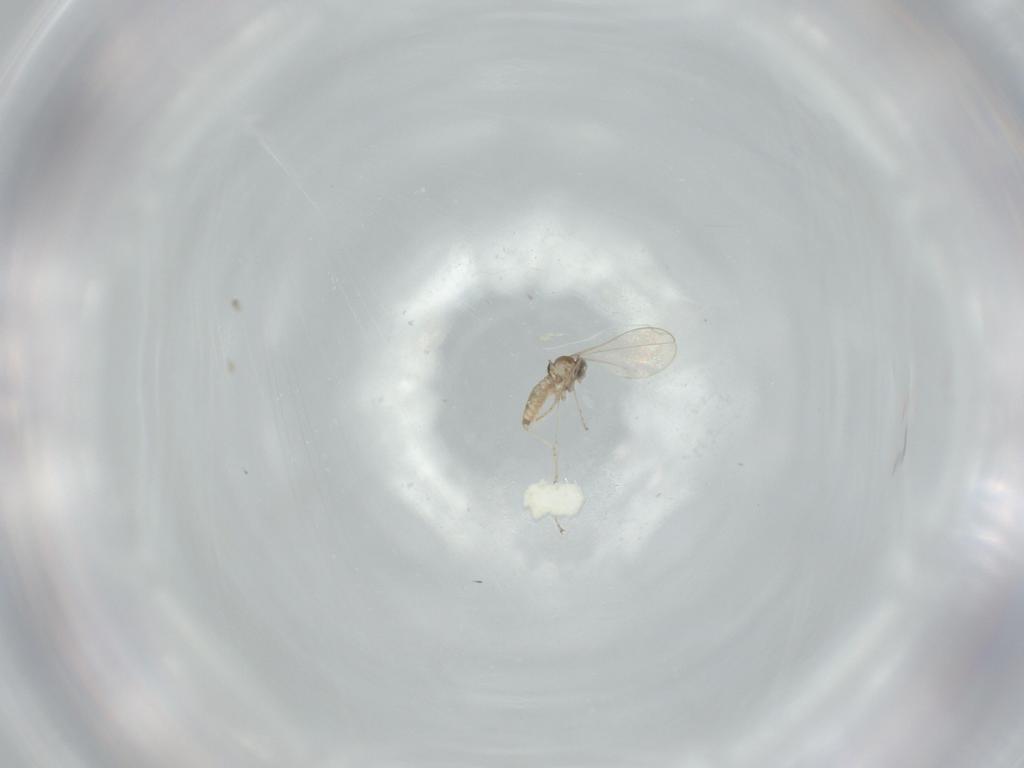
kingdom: Animalia
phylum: Arthropoda
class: Insecta
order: Diptera
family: Cecidomyiidae
